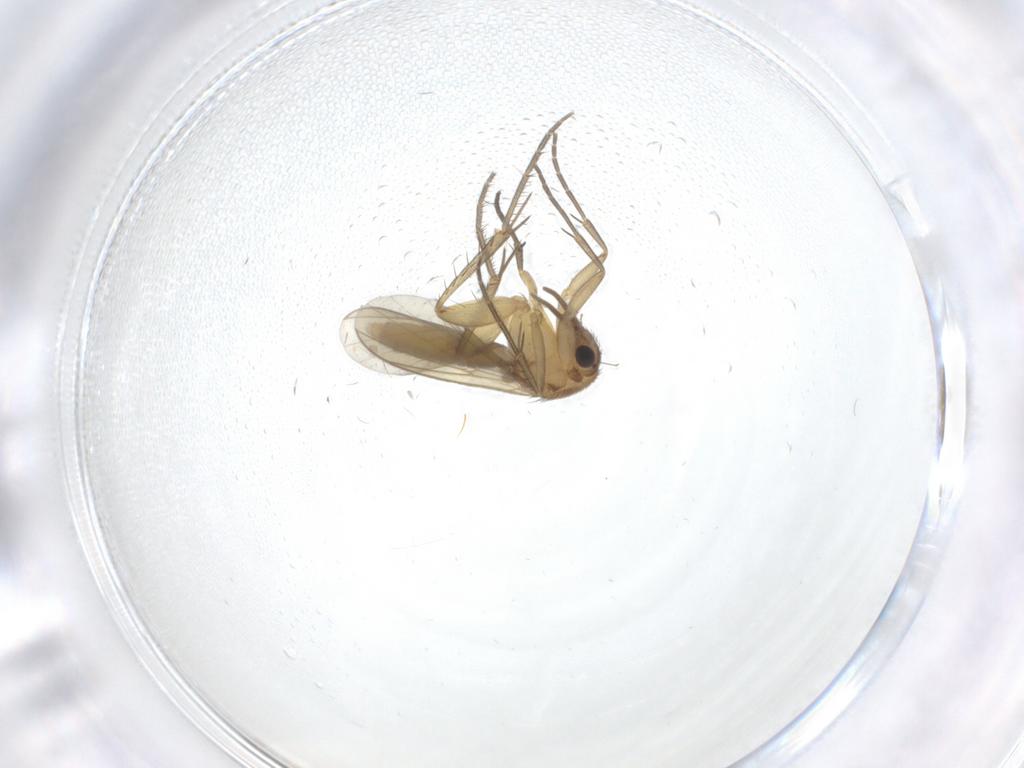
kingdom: Animalia
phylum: Arthropoda
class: Insecta
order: Diptera
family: Mycetophilidae
